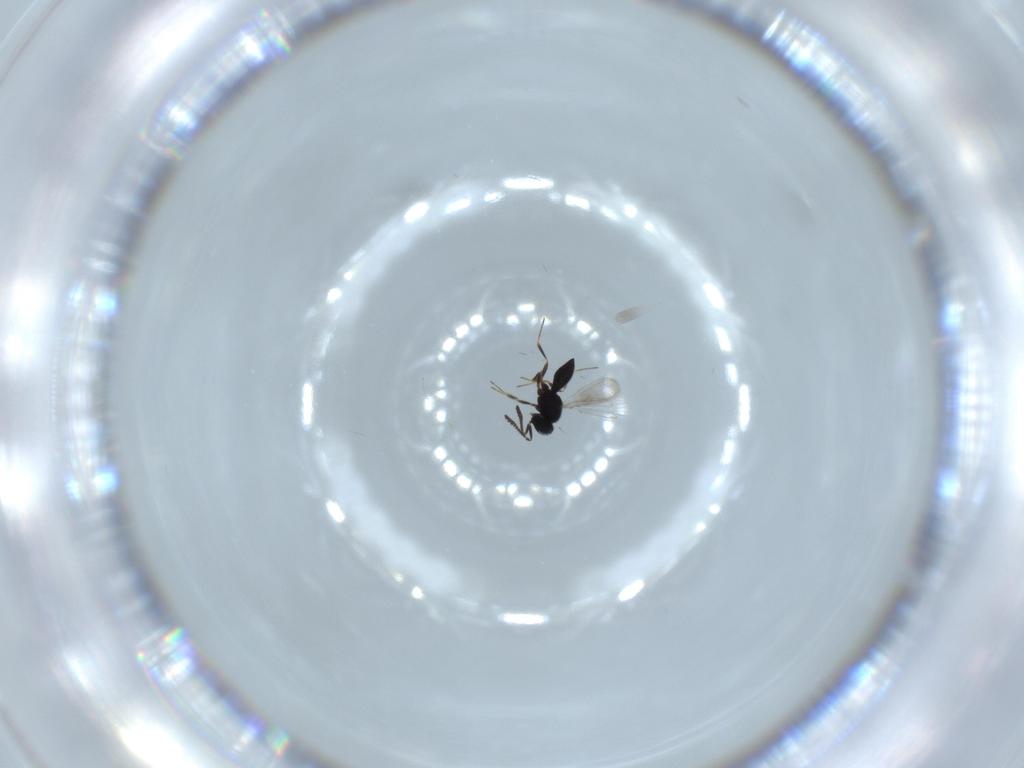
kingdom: Animalia
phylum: Arthropoda
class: Insecta
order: Hymenoptera
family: Scelionidae
